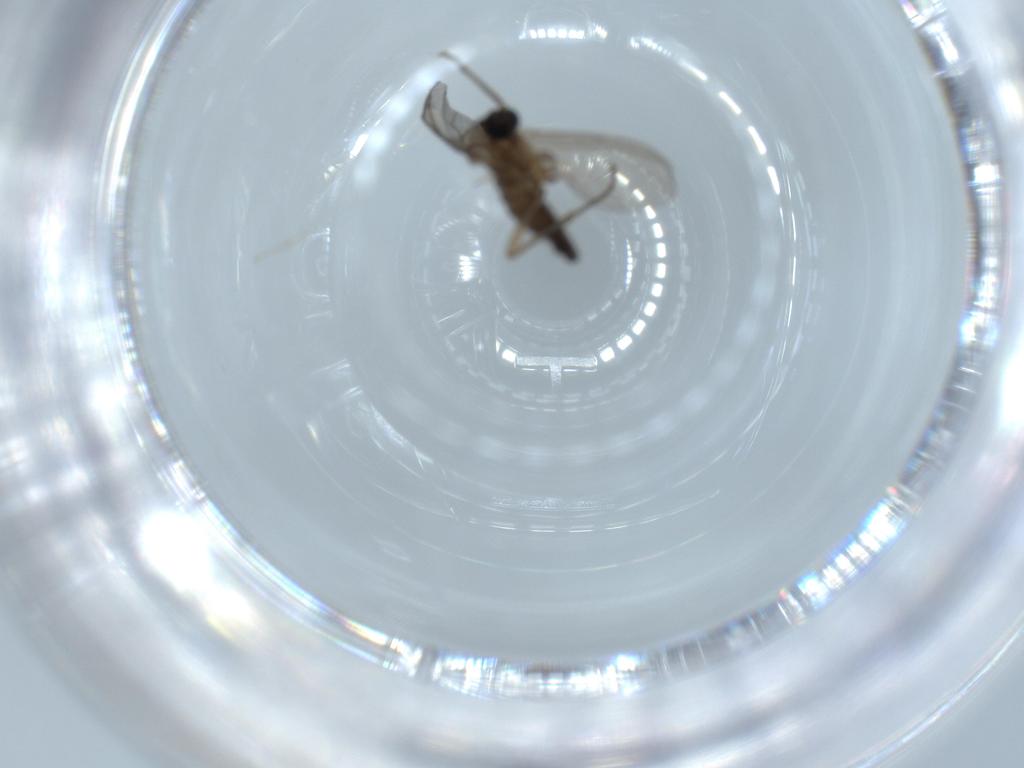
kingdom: Animalia
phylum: Arthropoda
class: Insecta
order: Diptera
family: Sciaridae
